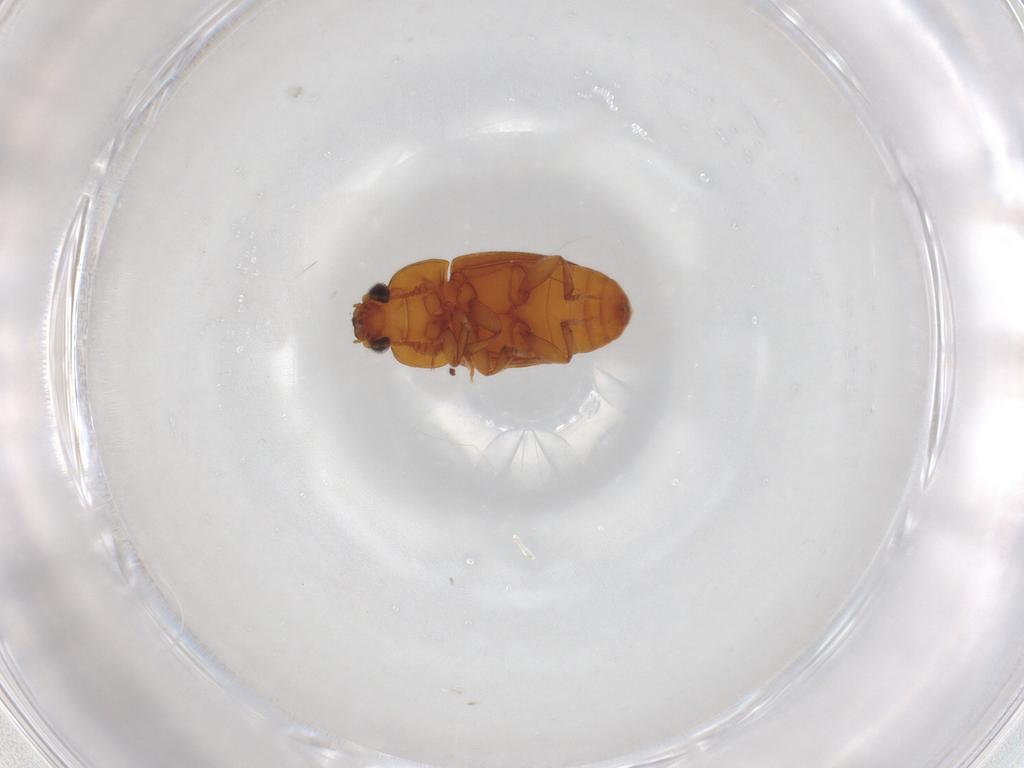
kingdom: Animalia
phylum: Arthropoda
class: Insecta
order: Coleoptera
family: Nitidulidae
